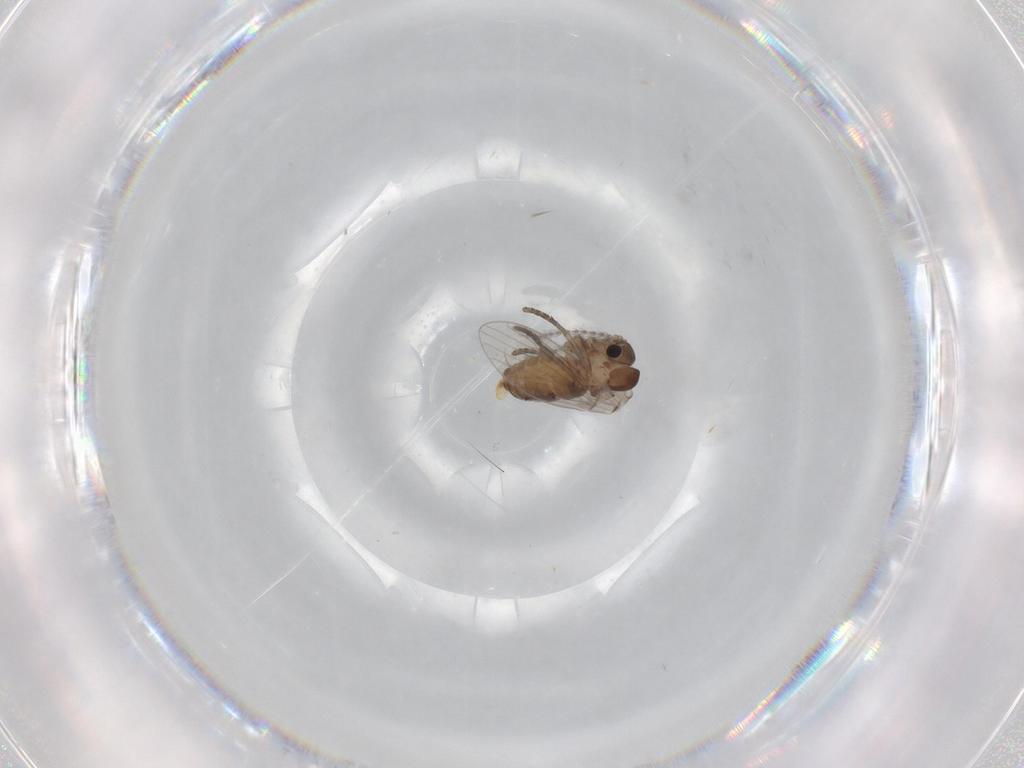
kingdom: Animalia
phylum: Arthropoda
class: Insecta
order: Diptera
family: Sciaridae
